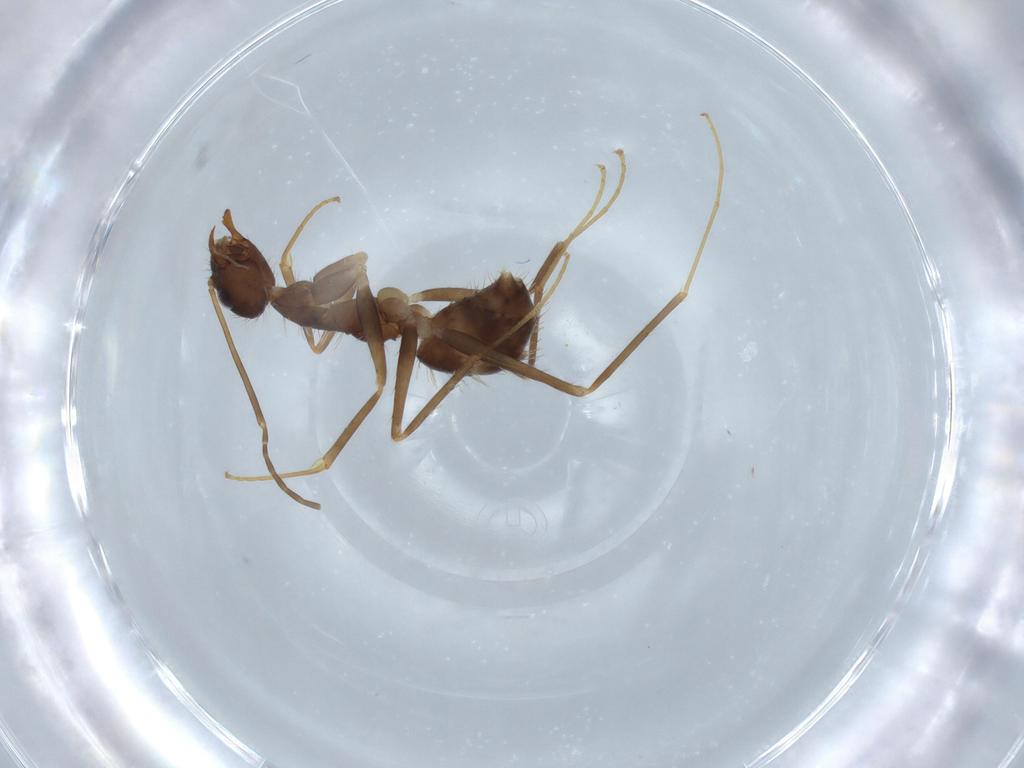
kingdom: Animalia
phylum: Arthropoda
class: Insecta
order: Hymenoptera
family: Formicidae
